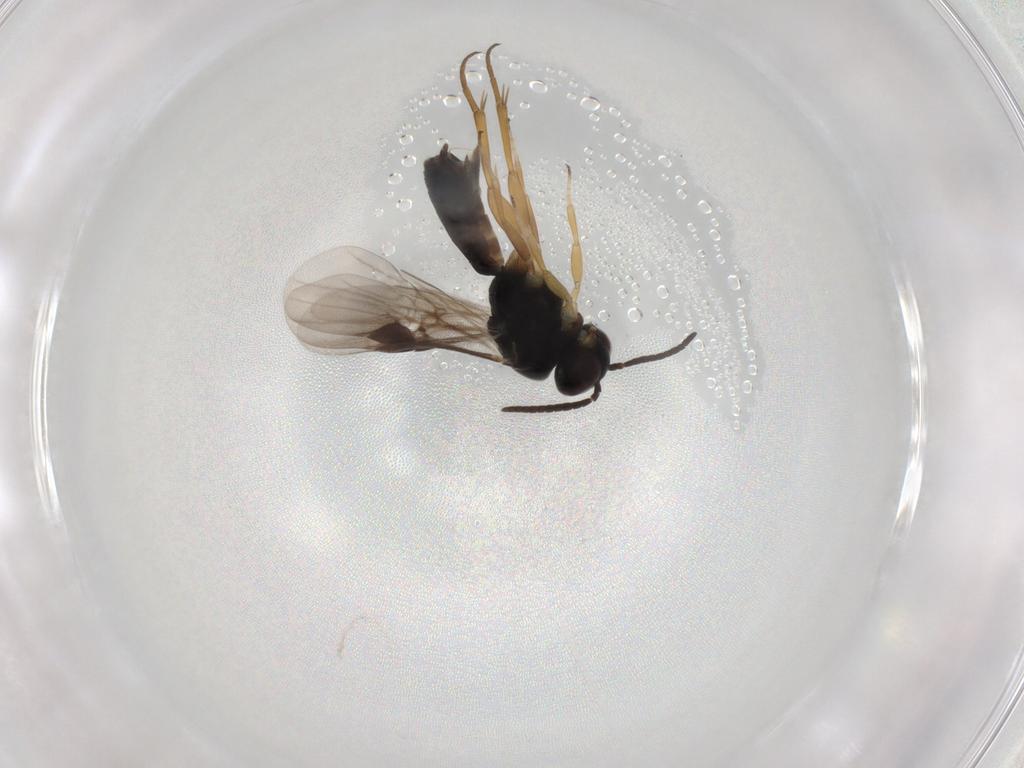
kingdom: Animalia
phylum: Arthropoda
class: Insecta
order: Hymenoptera
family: Braconidae
